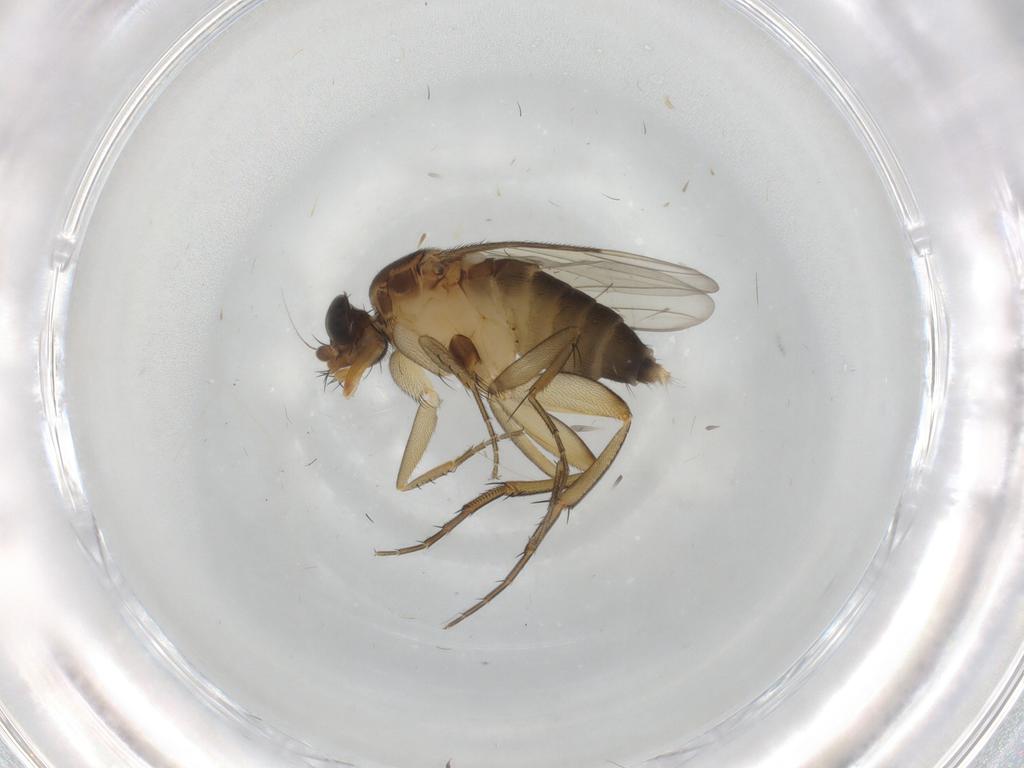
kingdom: Animalia
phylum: Arthropoda
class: Insecta
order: Diptera
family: Phoridae
